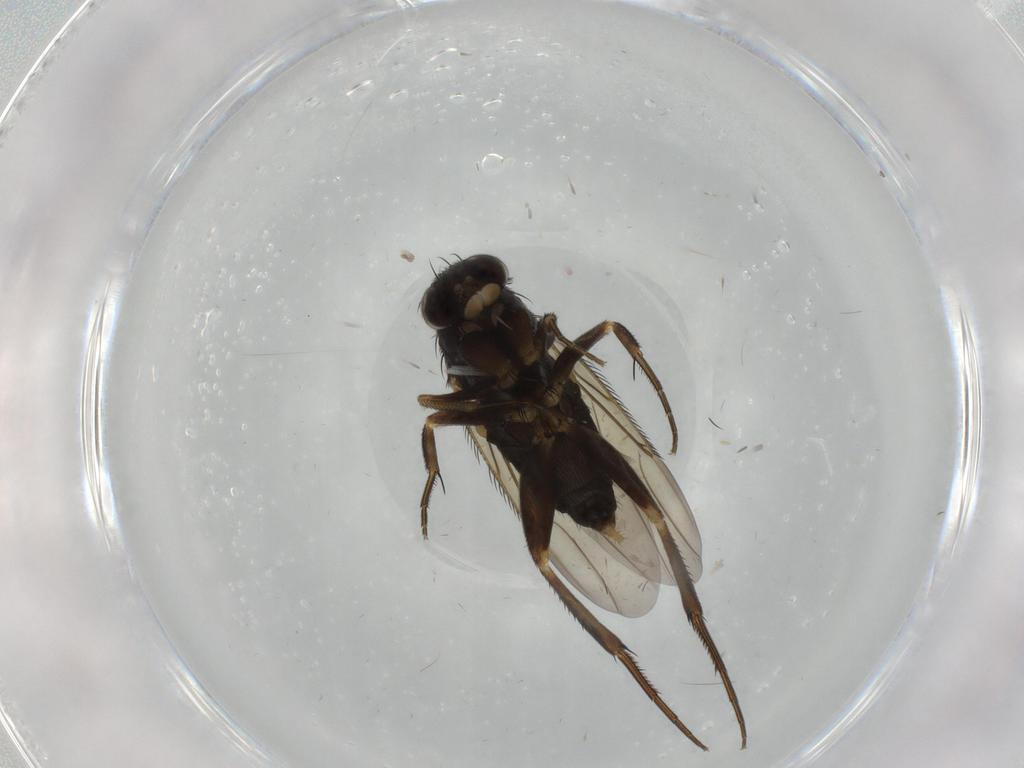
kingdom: Animalia
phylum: Arthropoda
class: Insecta
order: Diptera
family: Phoridae
